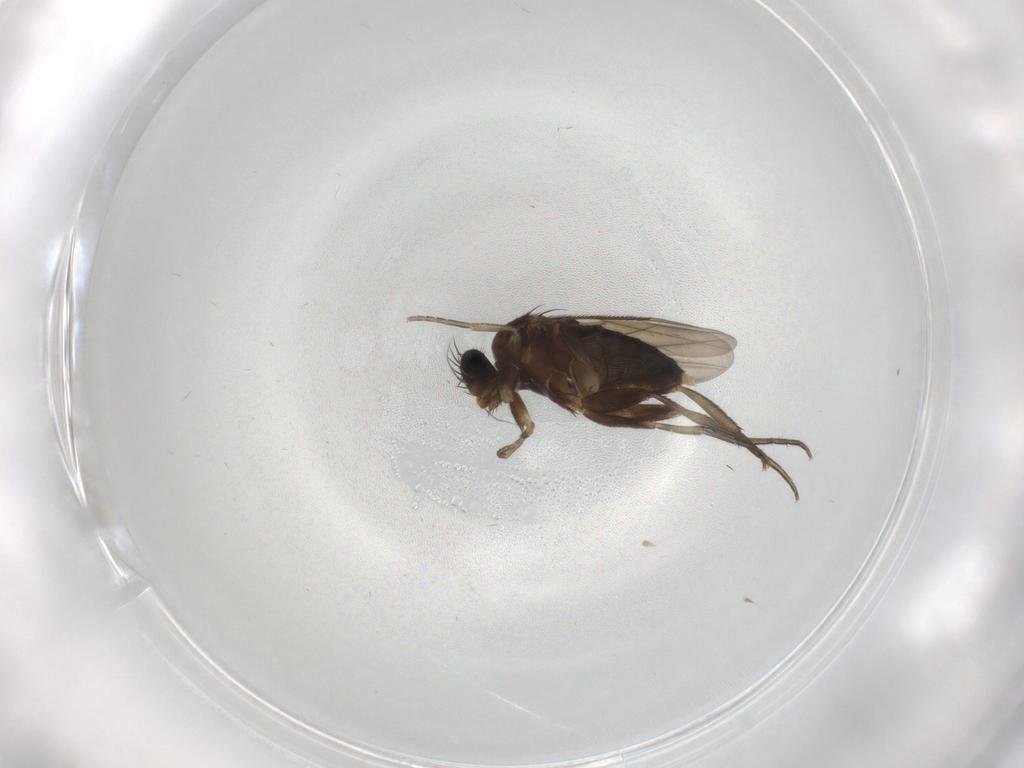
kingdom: Animalia
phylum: Arthropoda
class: Insecta
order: Diptera
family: Phoridae
